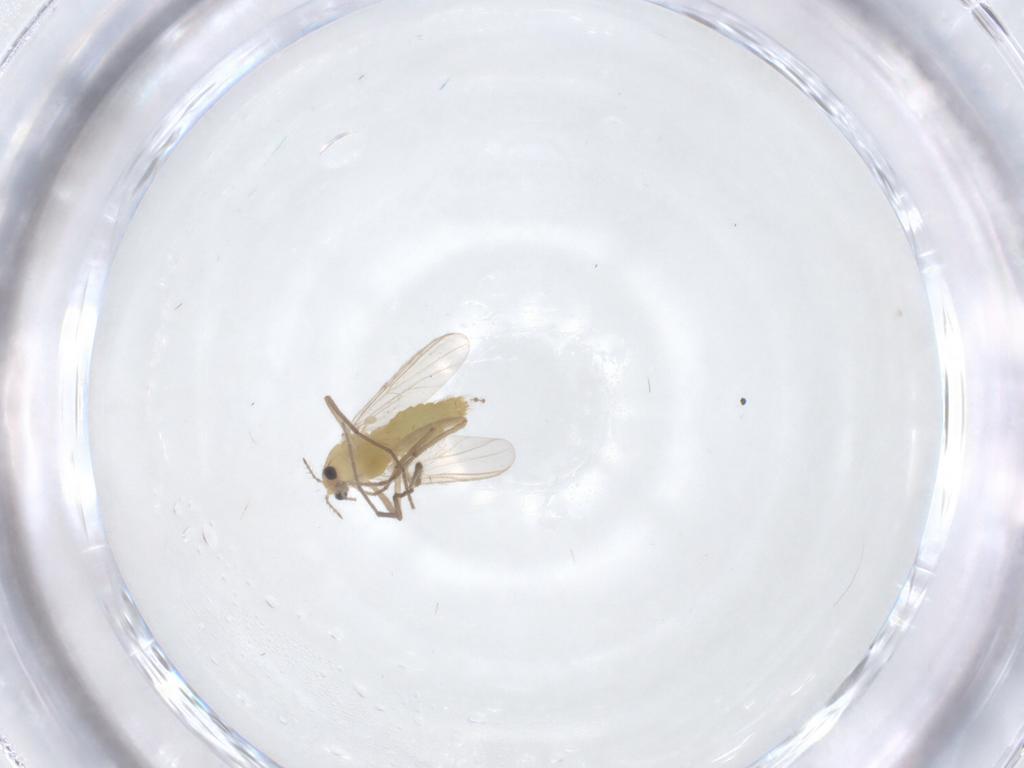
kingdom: Animalia
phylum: Arthropoda
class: Insecta
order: Diptera
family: Chironomidae
